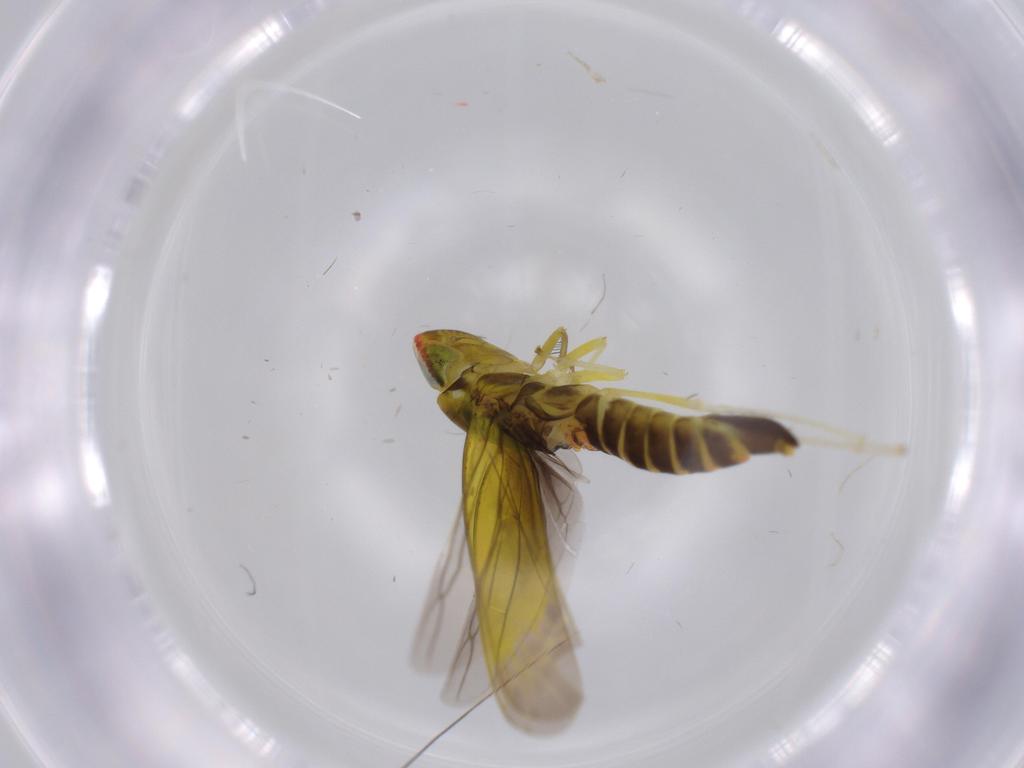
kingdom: Animalia
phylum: Arthropoda
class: Insecta
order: Hemiptera
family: Cicadellidae
